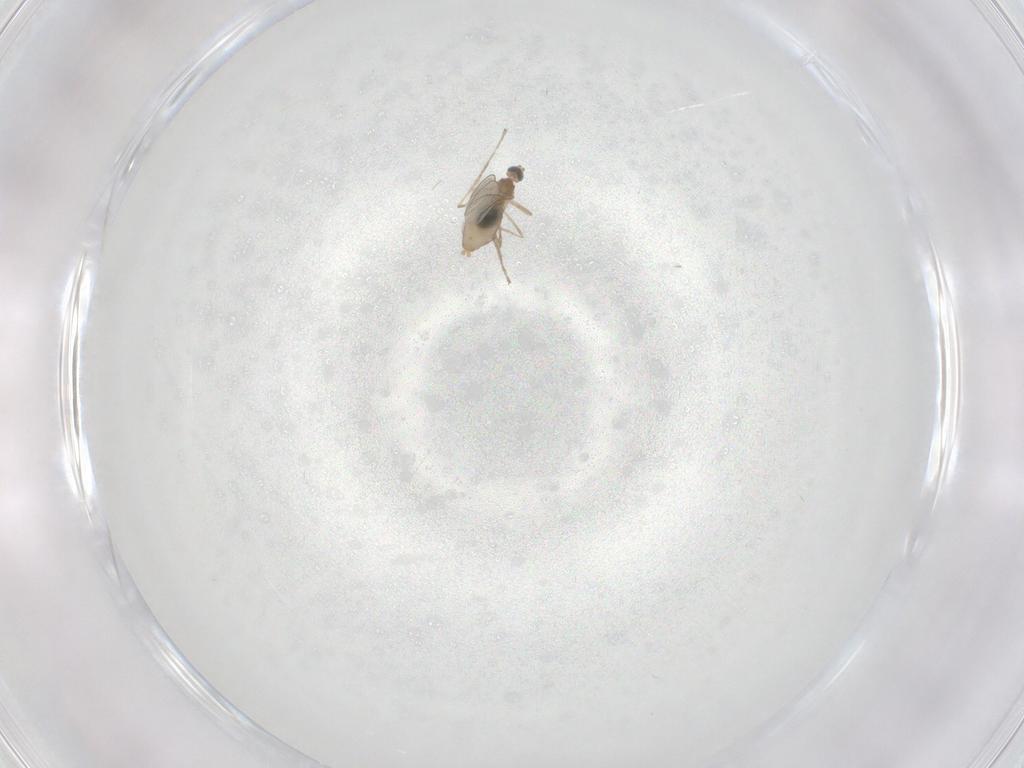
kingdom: Animalia
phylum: Arthropoda
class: Insecta
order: Diptera
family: Cecidomyiidae
